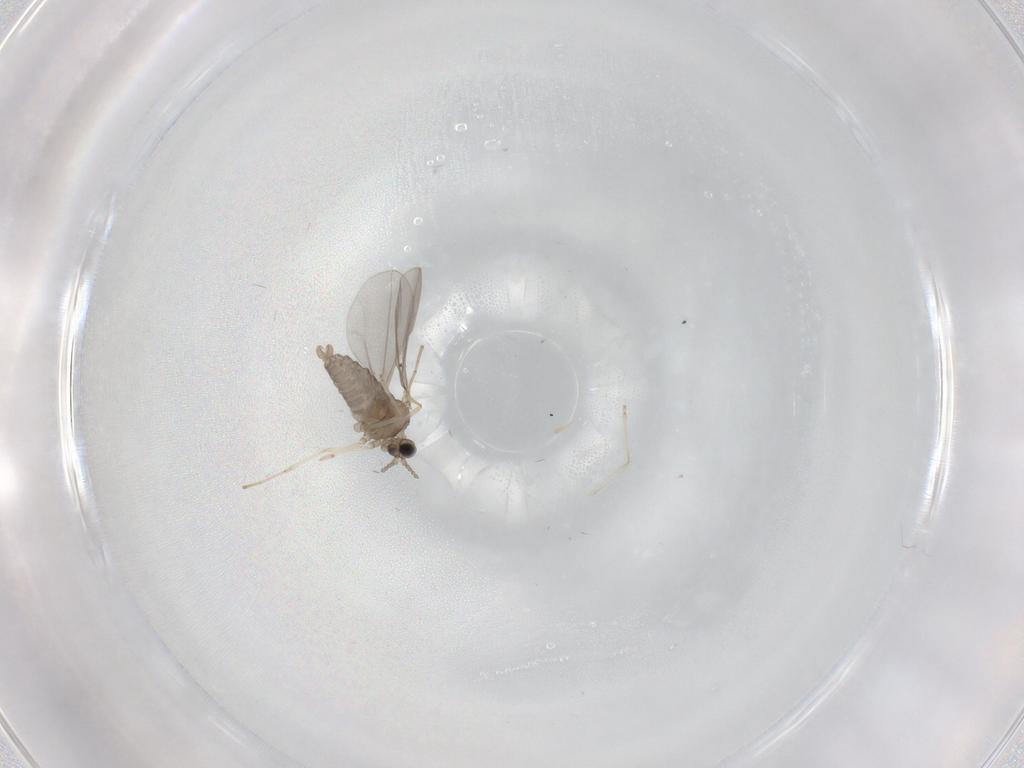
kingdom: Animalia
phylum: Arthropoda
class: Insecta
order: Diptera
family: Cecidomyiidae
